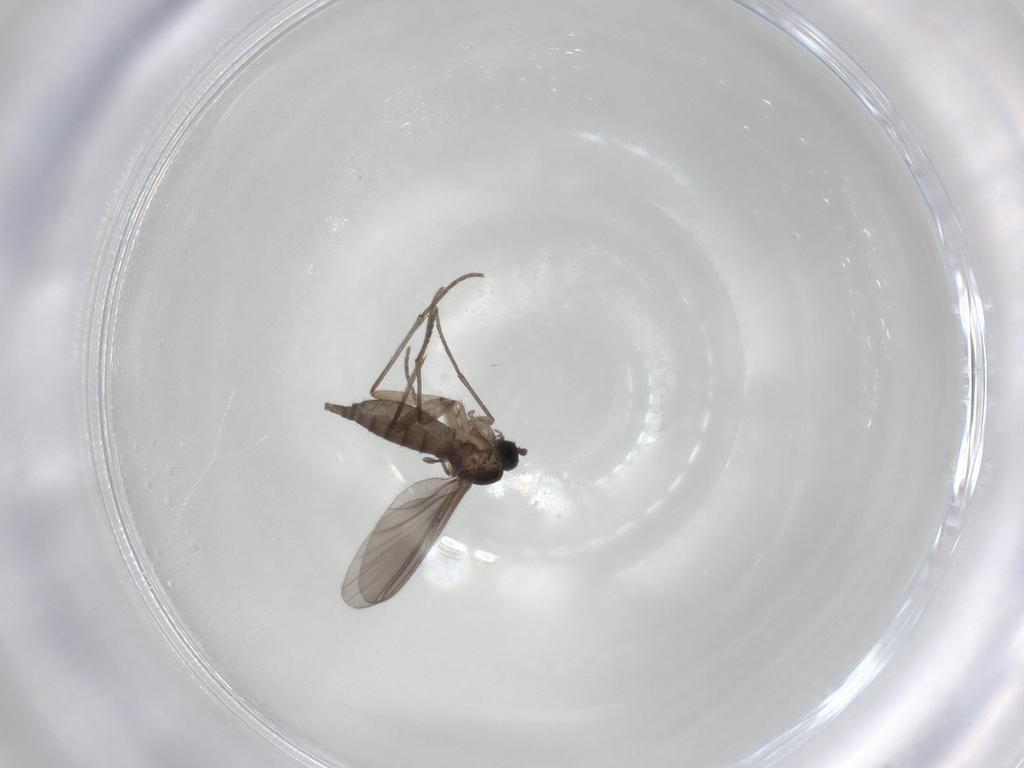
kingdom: Animalia
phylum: Arthropoda
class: Insecta
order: Diptera
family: Sciaridae
